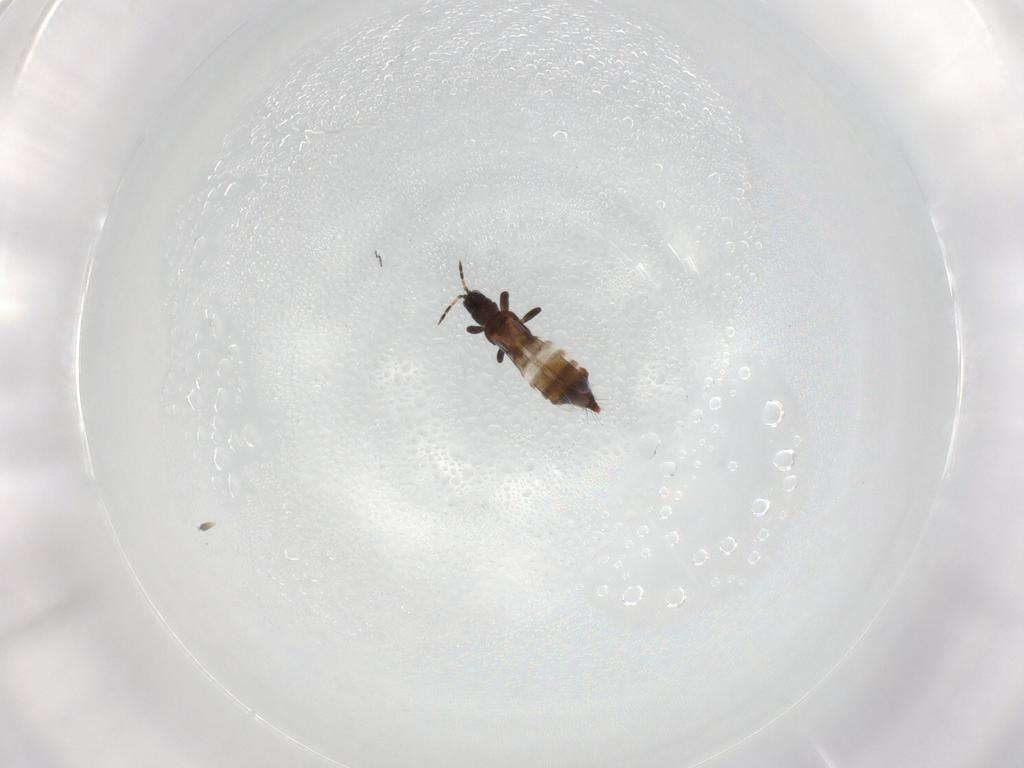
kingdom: Animalia
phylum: Arthropoda
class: Insecta
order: Thysanoptera
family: Aeolothripidae
